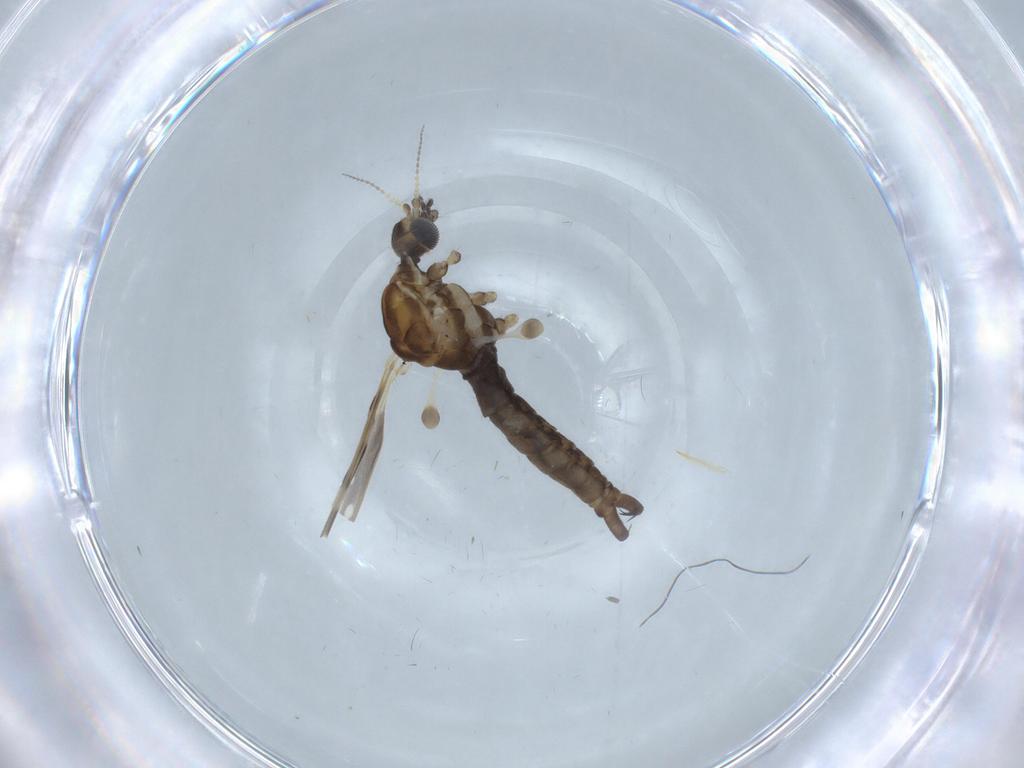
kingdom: Animalia
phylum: Arthropoda
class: Insecta
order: Diptera
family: Limoniidae
